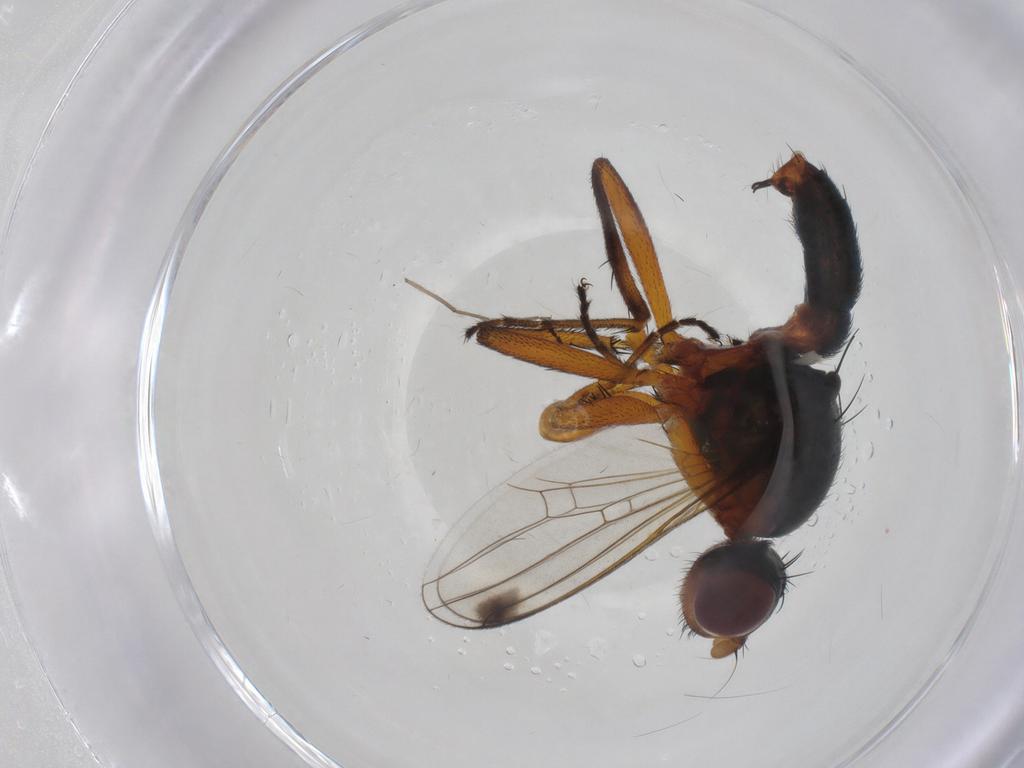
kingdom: Animalia
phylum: Arthropoda
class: Insecta
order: Diptera
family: Sepsidae
